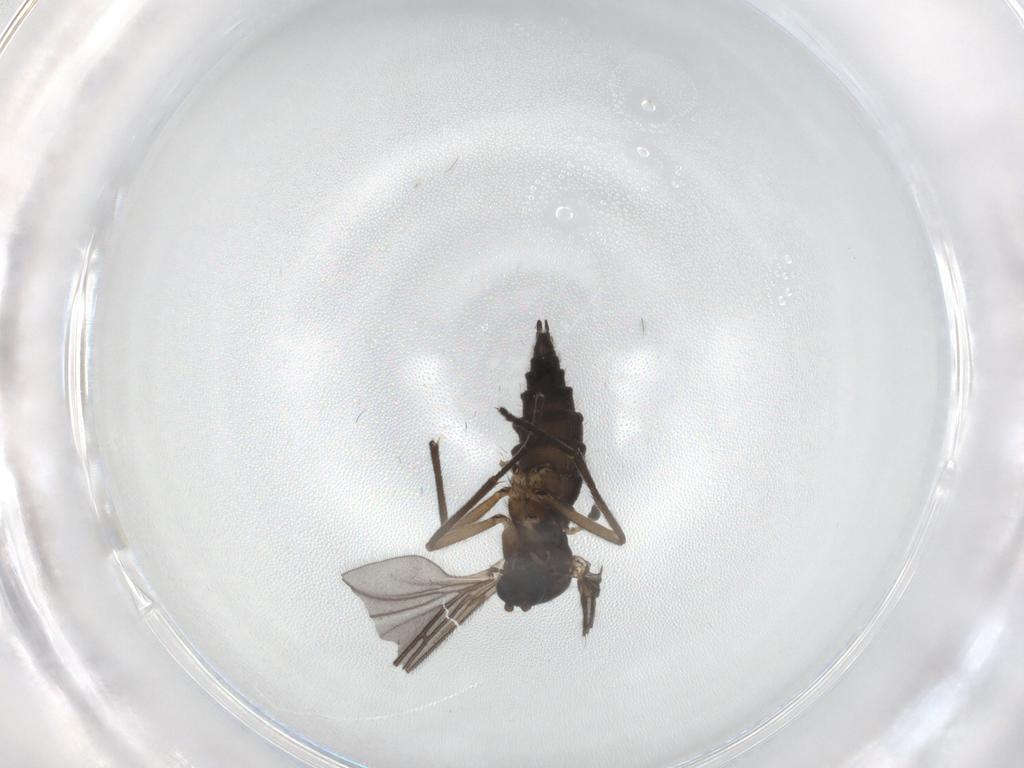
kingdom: Animalia
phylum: Arthropoda
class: Insecta
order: Diptera
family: Sciaridae
